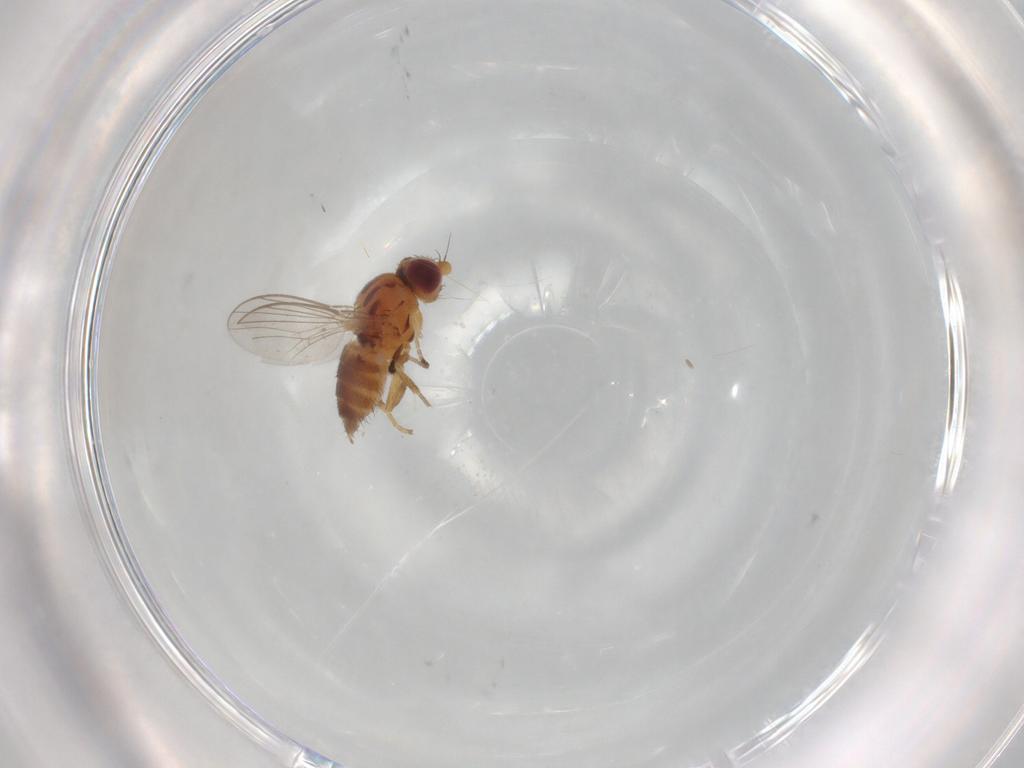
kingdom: Animalia
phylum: Arthropoda
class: Insecta
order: Diptera
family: Chloropidae
